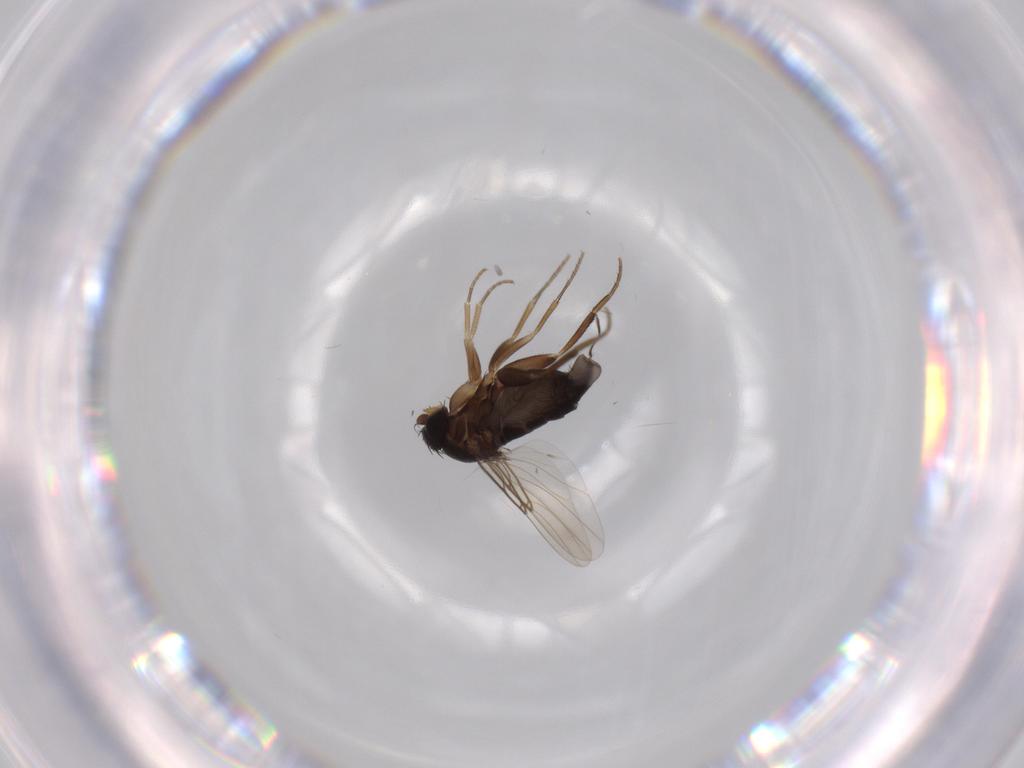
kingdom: Animalia
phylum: Arthropoda
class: Insecta
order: Diptera
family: Phoridae
